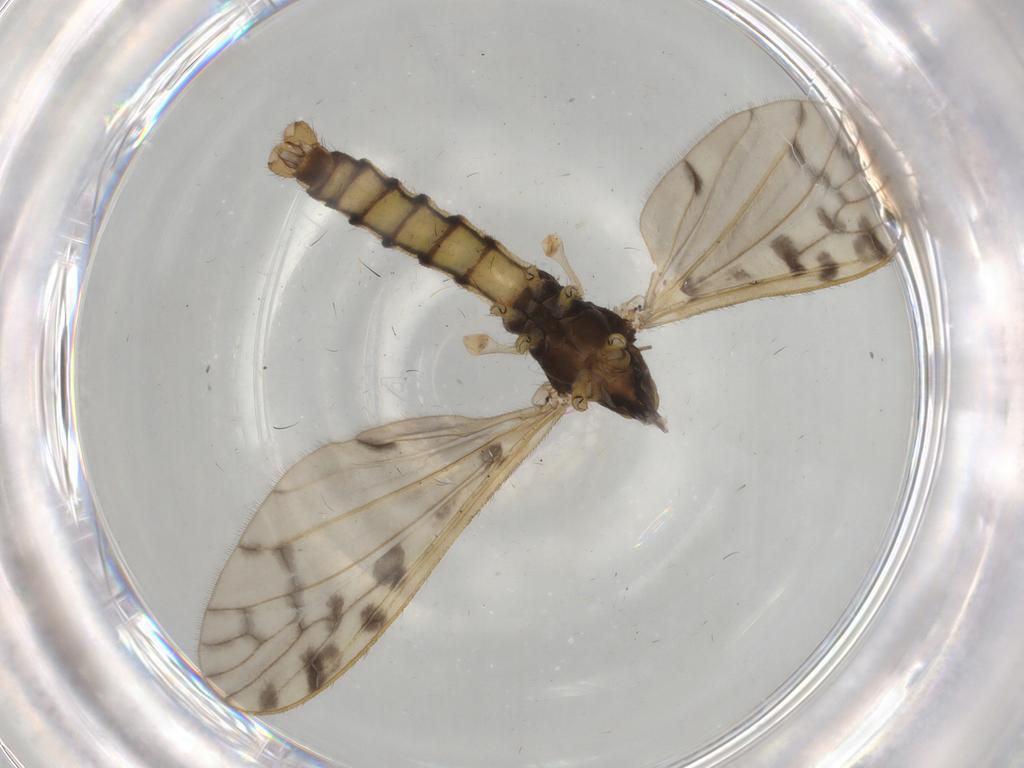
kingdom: Animalia
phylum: Arthropoda
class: Insecta
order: Diptera
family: Limoniidae
